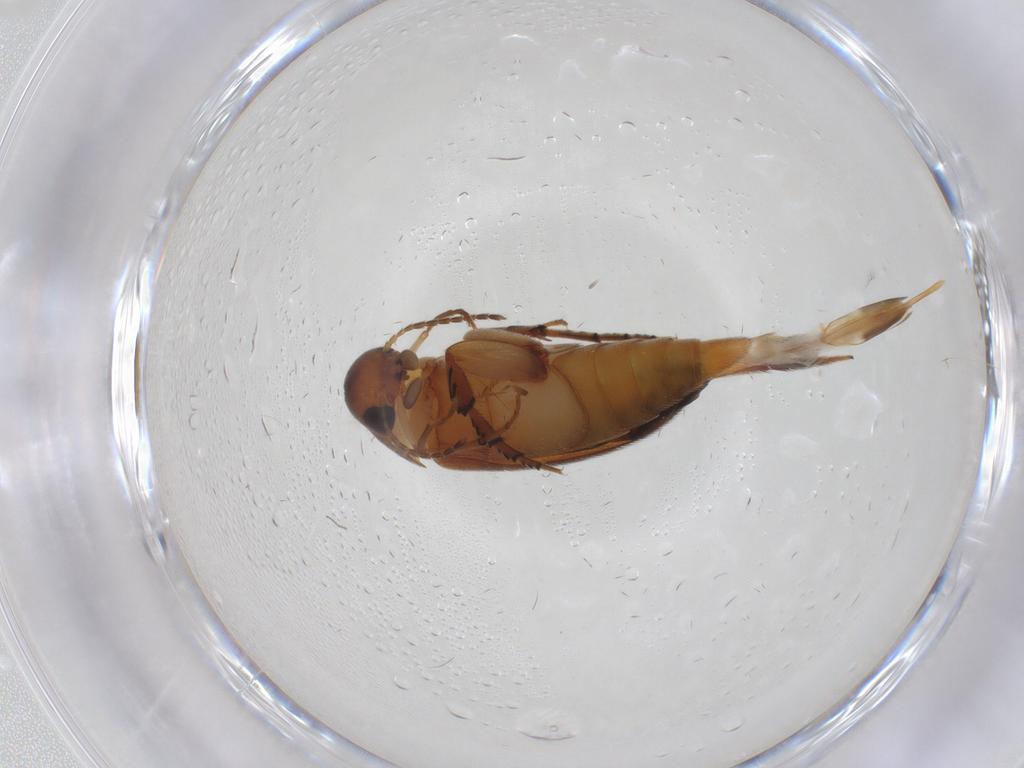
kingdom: Animalia
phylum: Arthropoda
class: Insecta
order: Coleoptera
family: Mordellidae
